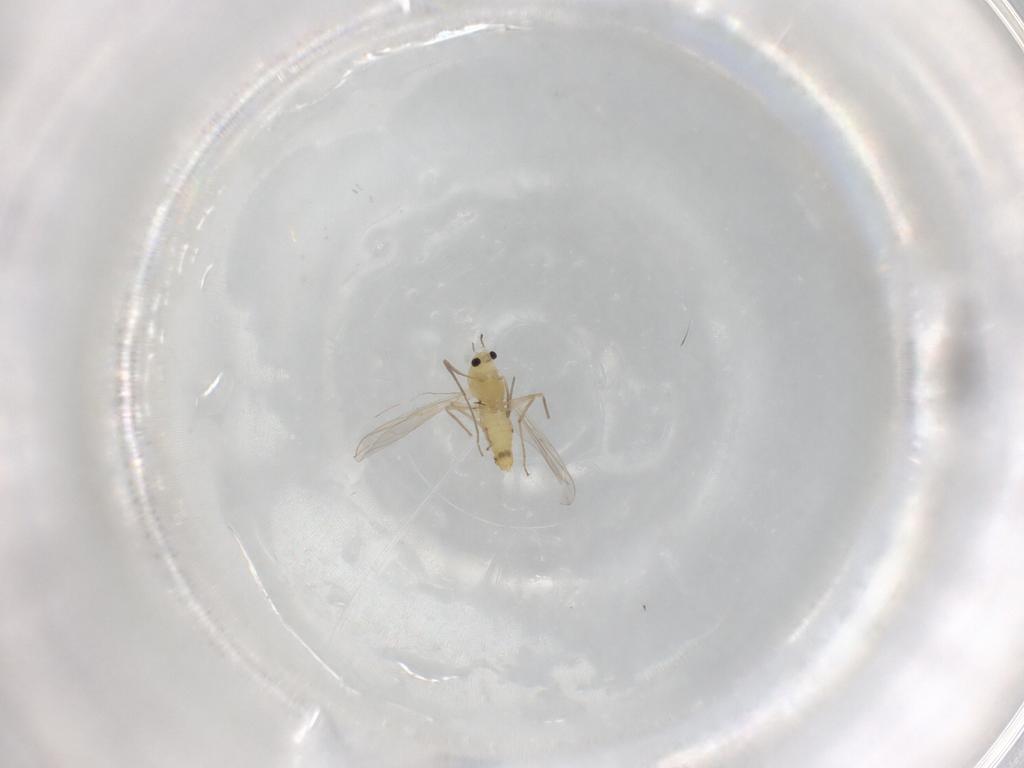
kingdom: Animalia
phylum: Arthropoda
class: Insecta
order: Diptera
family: Chironomidae
